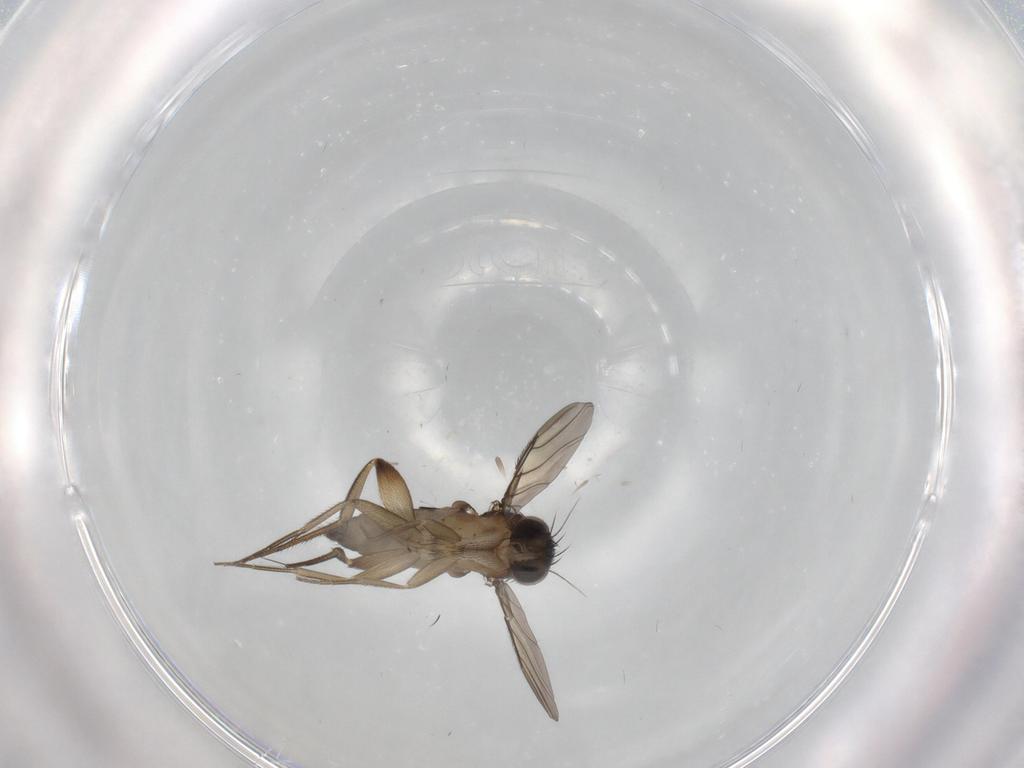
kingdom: Animalia
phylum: Arthropoda
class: Insecta
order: Diptera
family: Phoridae
